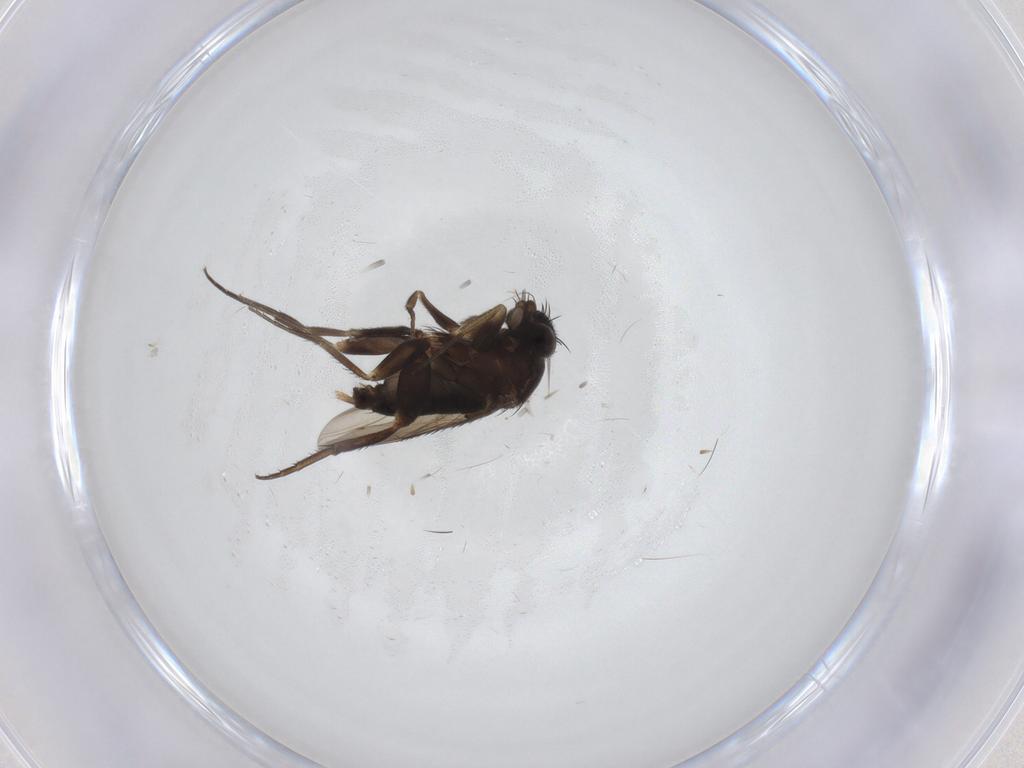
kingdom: Animalia
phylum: Arthropoda
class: Insecta
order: Diptera
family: Phoridae
